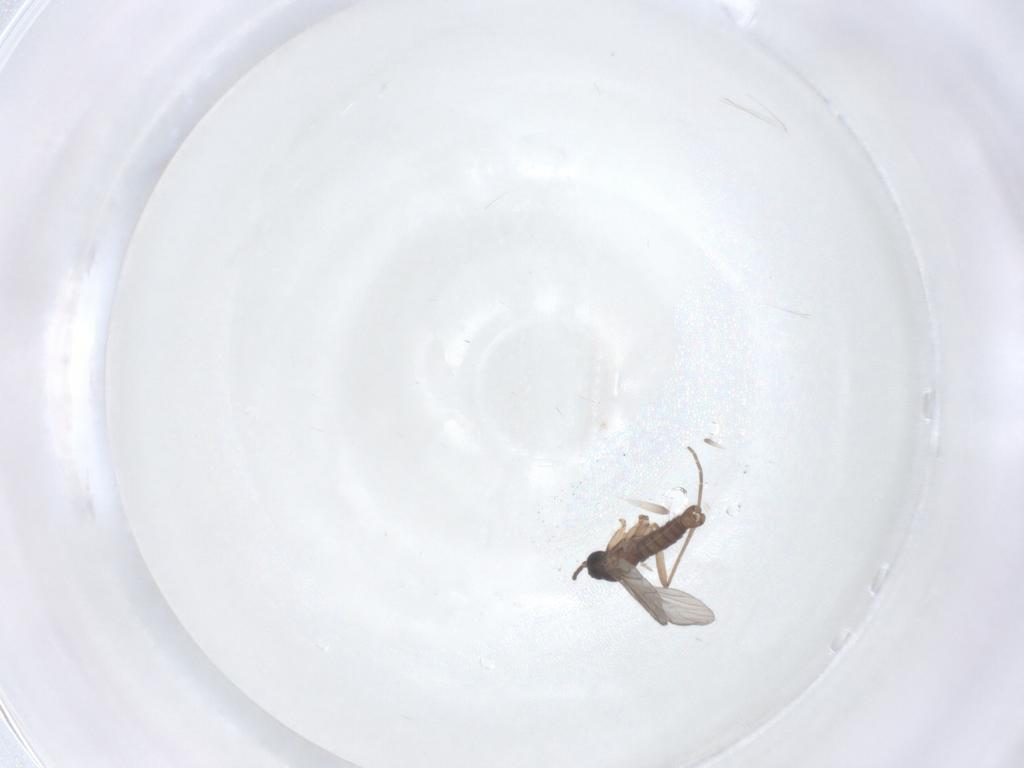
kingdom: Animalia
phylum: Arthropoda
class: Insecta
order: Diptera
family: Sciaridae
